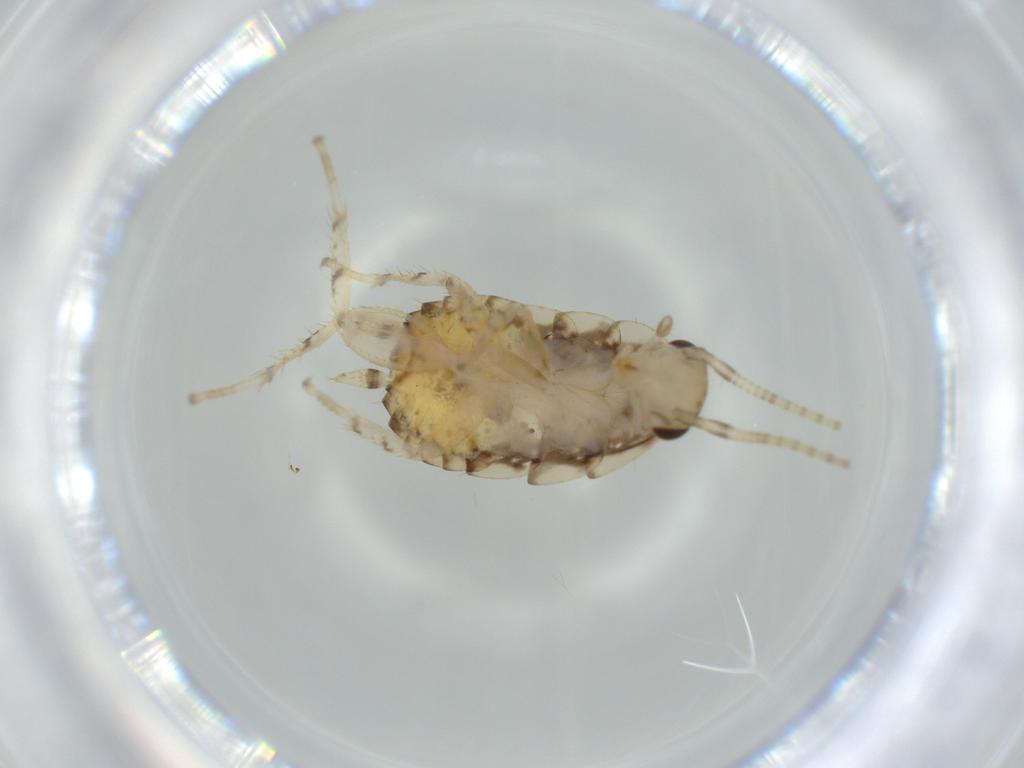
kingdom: Animalia
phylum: Arthropoda
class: Insecta
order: Blattodea
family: Ectobiidae
